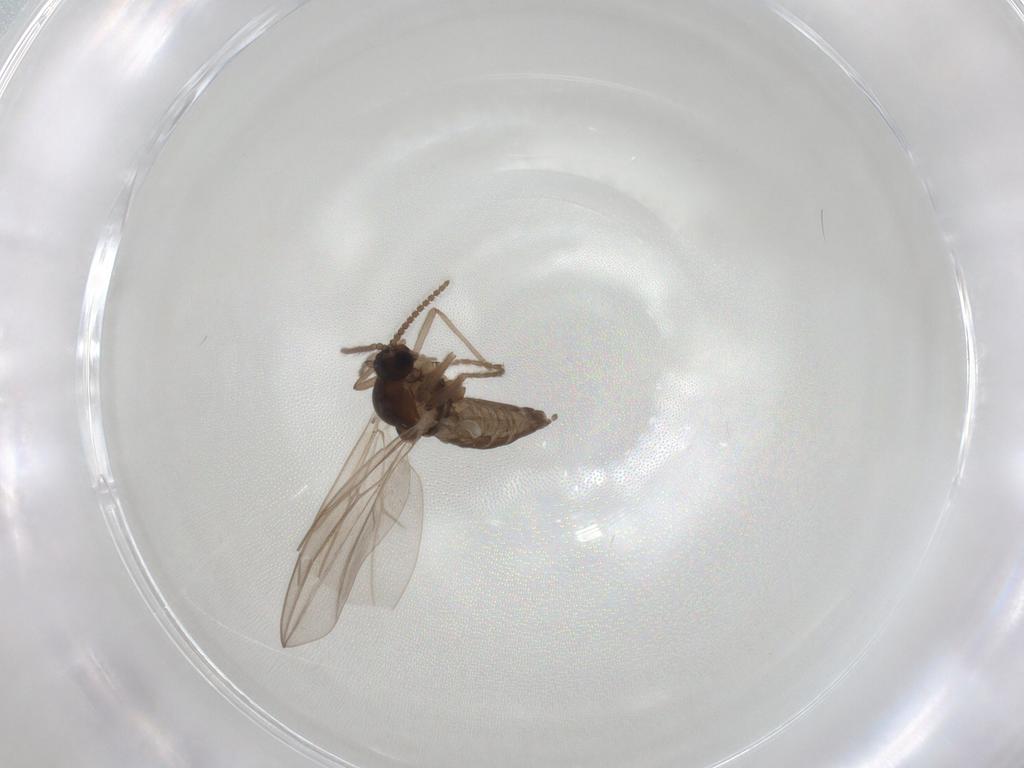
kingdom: Animalia
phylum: Arthropoda
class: Insecta
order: Diptera
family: Cecidomyiidae
